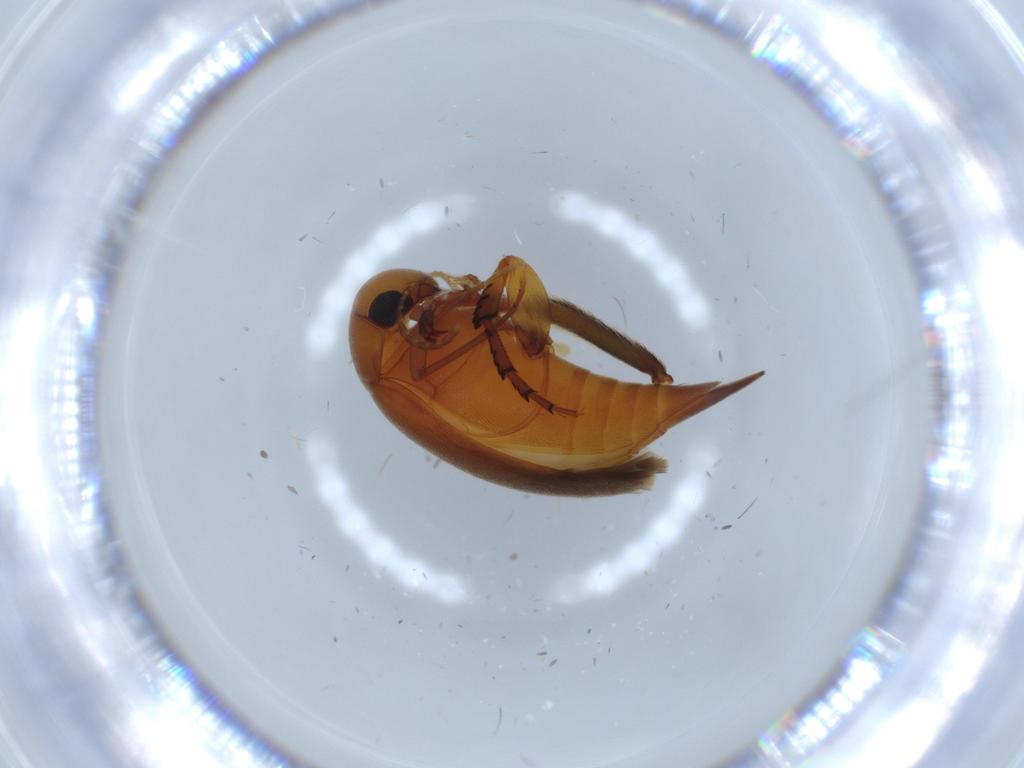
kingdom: Animalia
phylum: Arthropoda
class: Insecta
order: Coleoptera
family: Mordellidae
